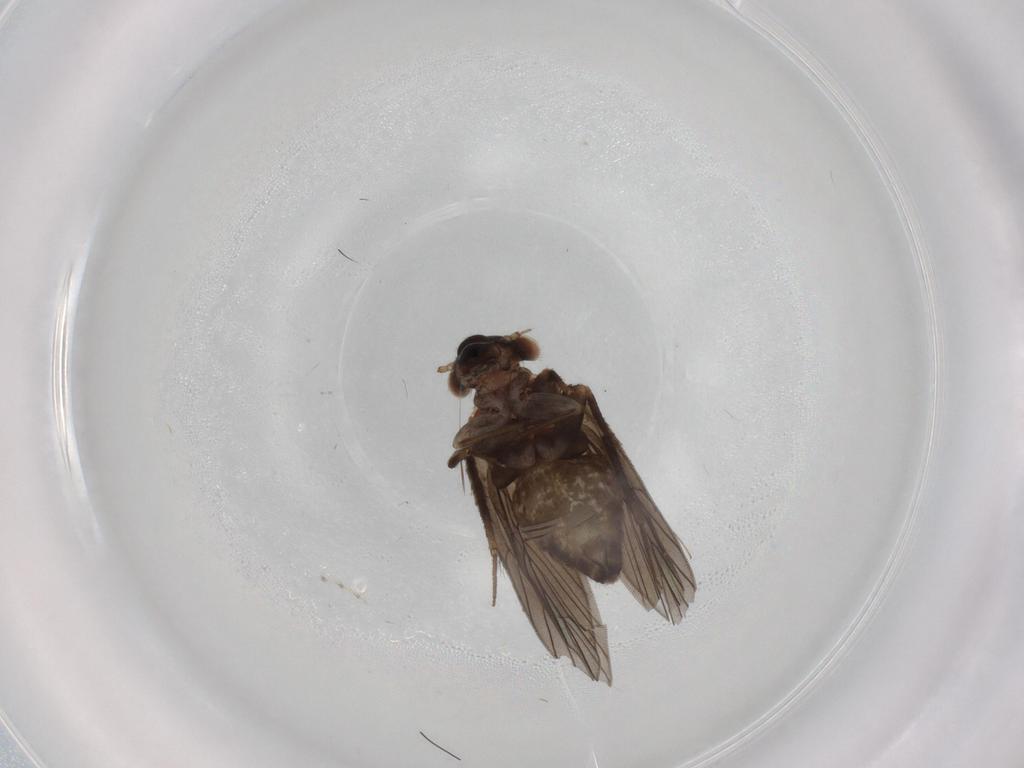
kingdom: Animalia
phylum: Arthropoda
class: Insecta
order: Psocodea
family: Lepidopsocidae
